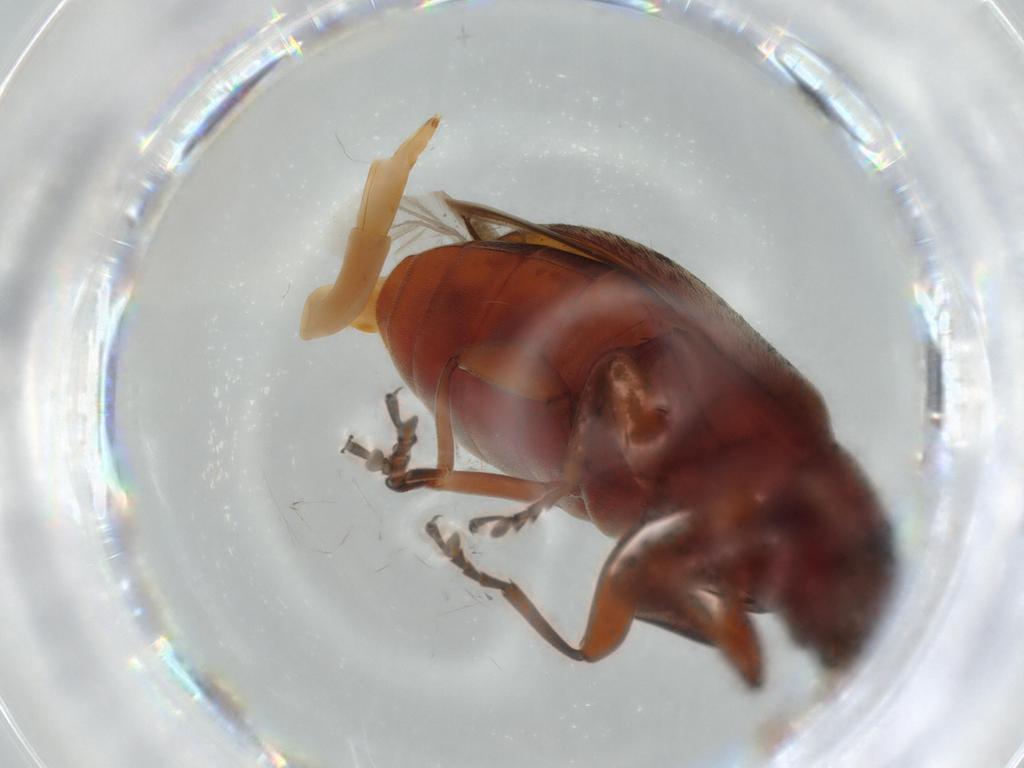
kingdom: Animalia
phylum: Arthropoda
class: Insecta
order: Coleoptera
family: Mycteridae
